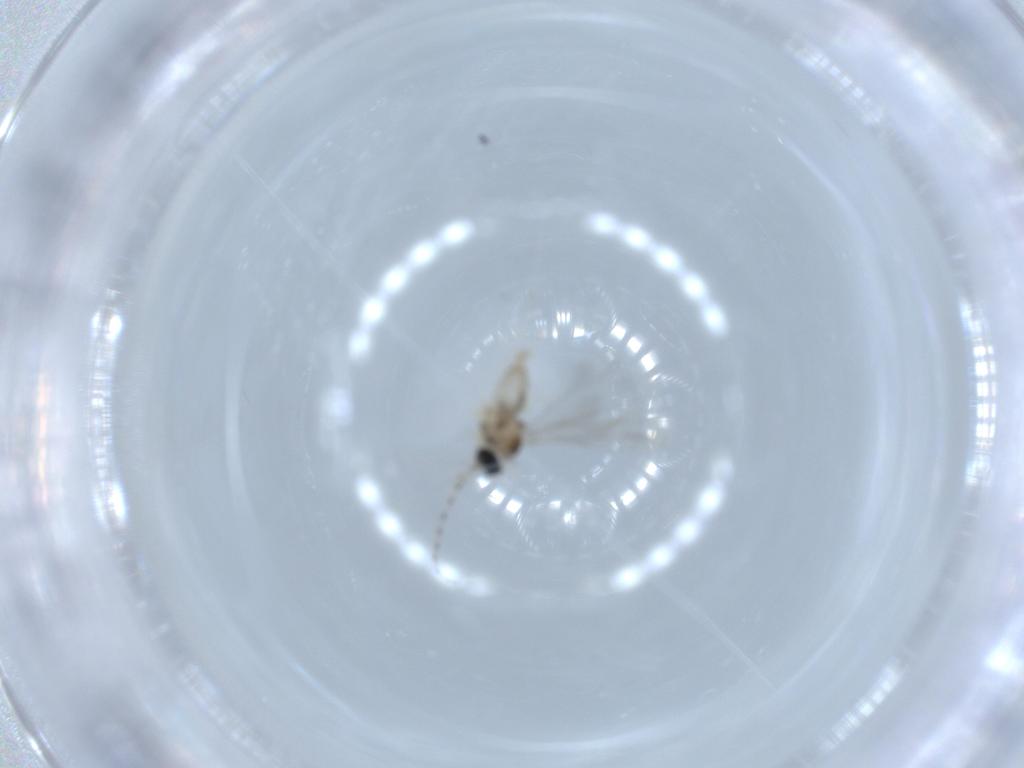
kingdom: Animalia
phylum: Arthropoda
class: Insecta
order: Diptera
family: Cecidomyiidae
